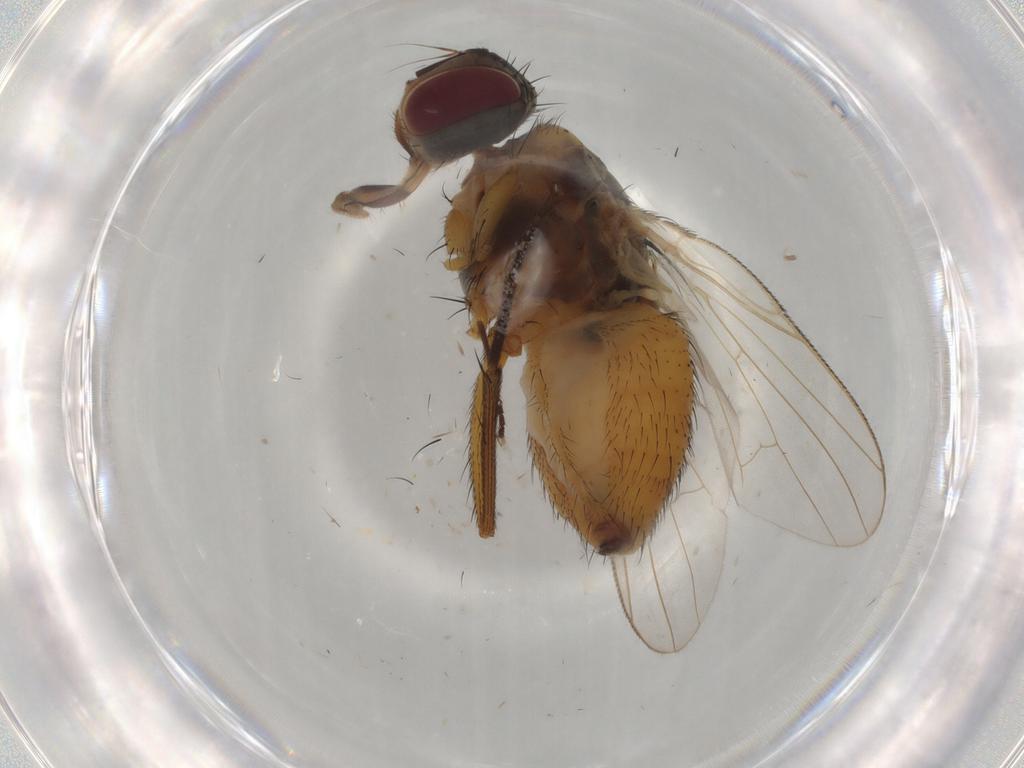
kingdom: Animalia
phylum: Arthropoda
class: Insecta
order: Diptera
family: Muscidae
